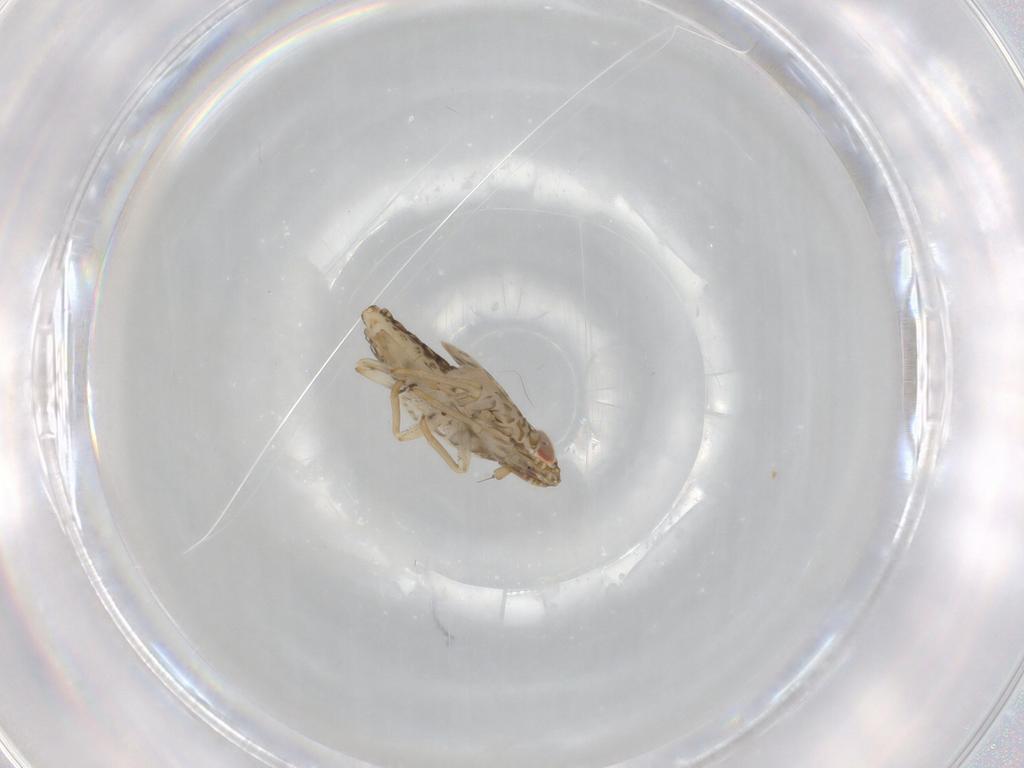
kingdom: Animalia
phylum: Arthropoda
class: Insecta
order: Hemiptera
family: Delphacidae
